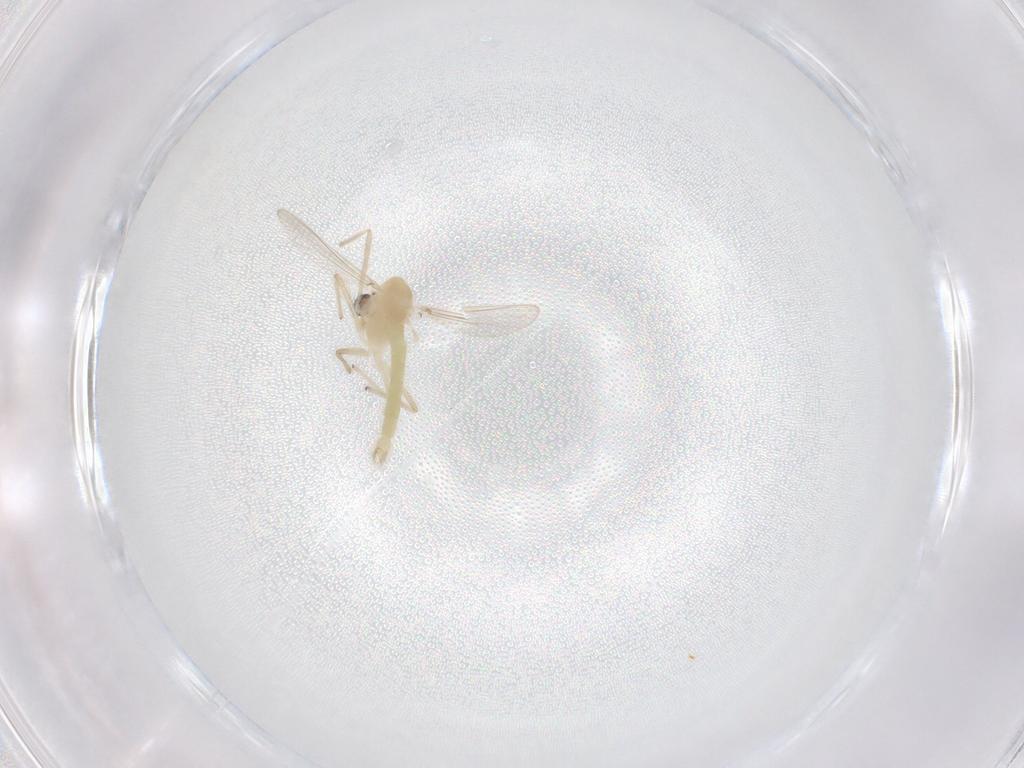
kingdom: Animalia
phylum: Arthropoda
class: Insecta
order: Diptera
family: Chironomidae
